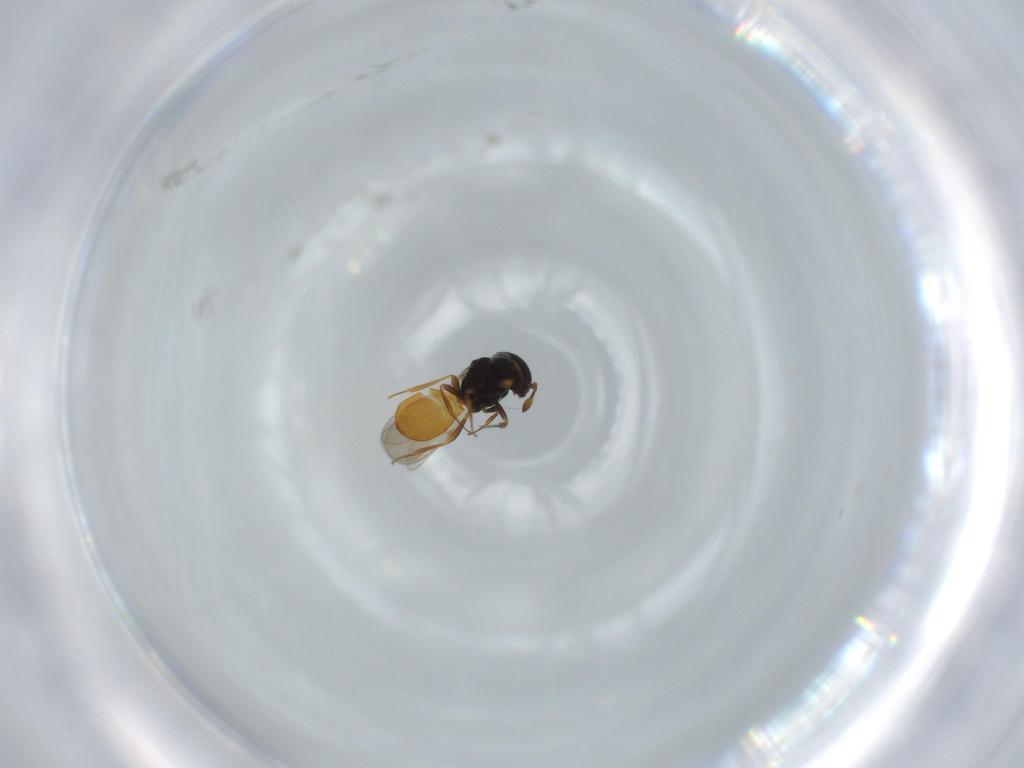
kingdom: Animalia
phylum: Arthropoda
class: Insecta
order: Hymenoptera
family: Scelionidae
